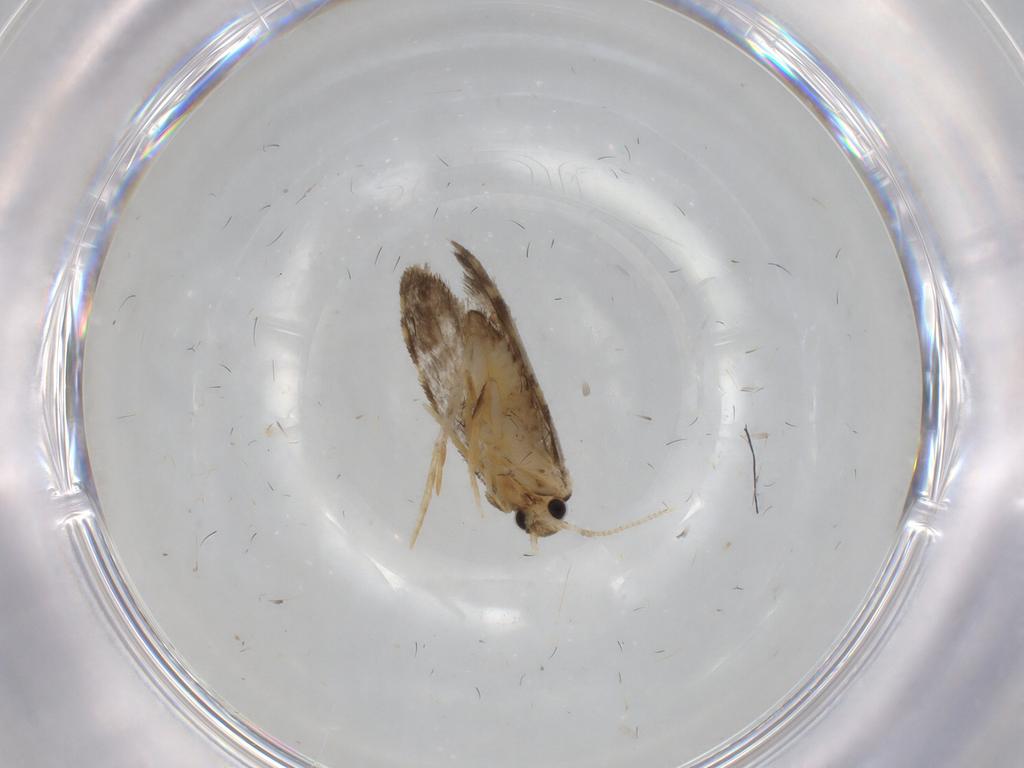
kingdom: Animalia
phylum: Arthropoda
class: Insecta
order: Lepidoptera
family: Psychidae
